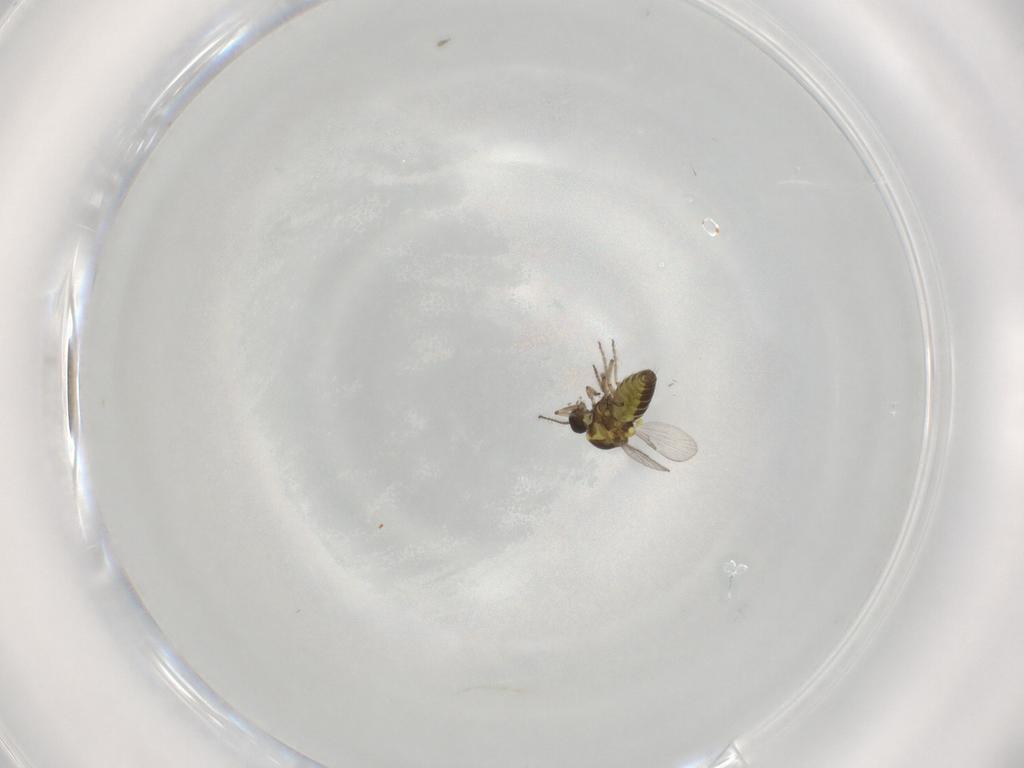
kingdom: Animalia
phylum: Arthropoda
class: Insecta
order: Diptera
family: Ceratopogonidae
